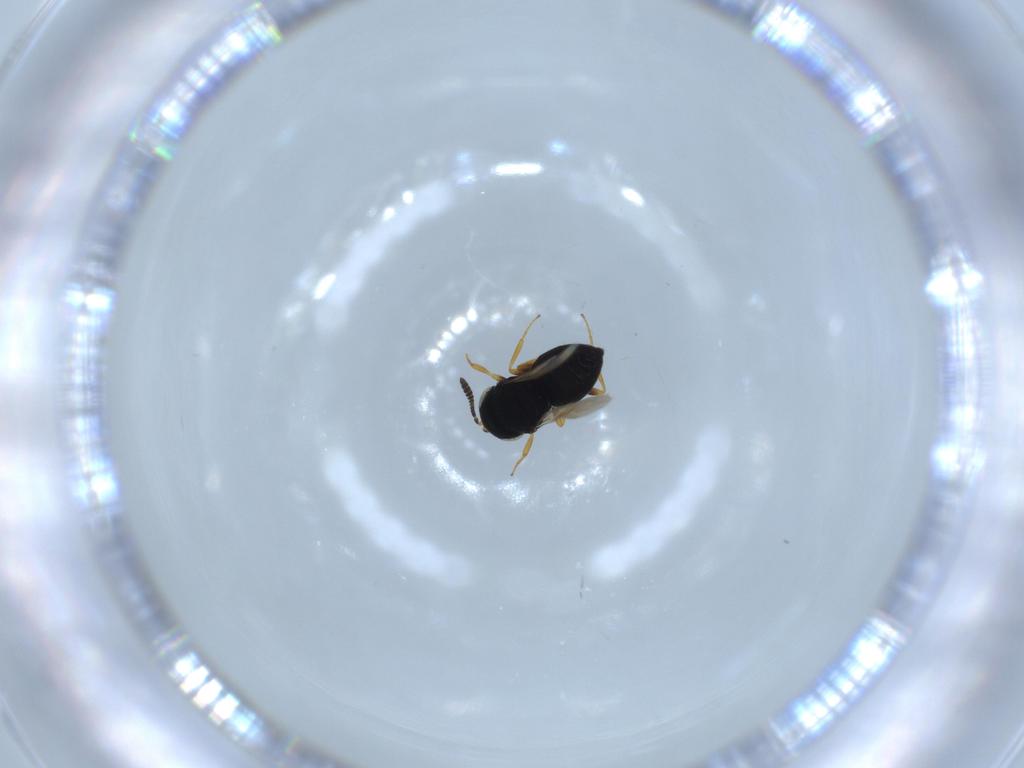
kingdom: Animalia
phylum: Arthropoda
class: Insecta
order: Hymenoptera
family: Scelionidae
